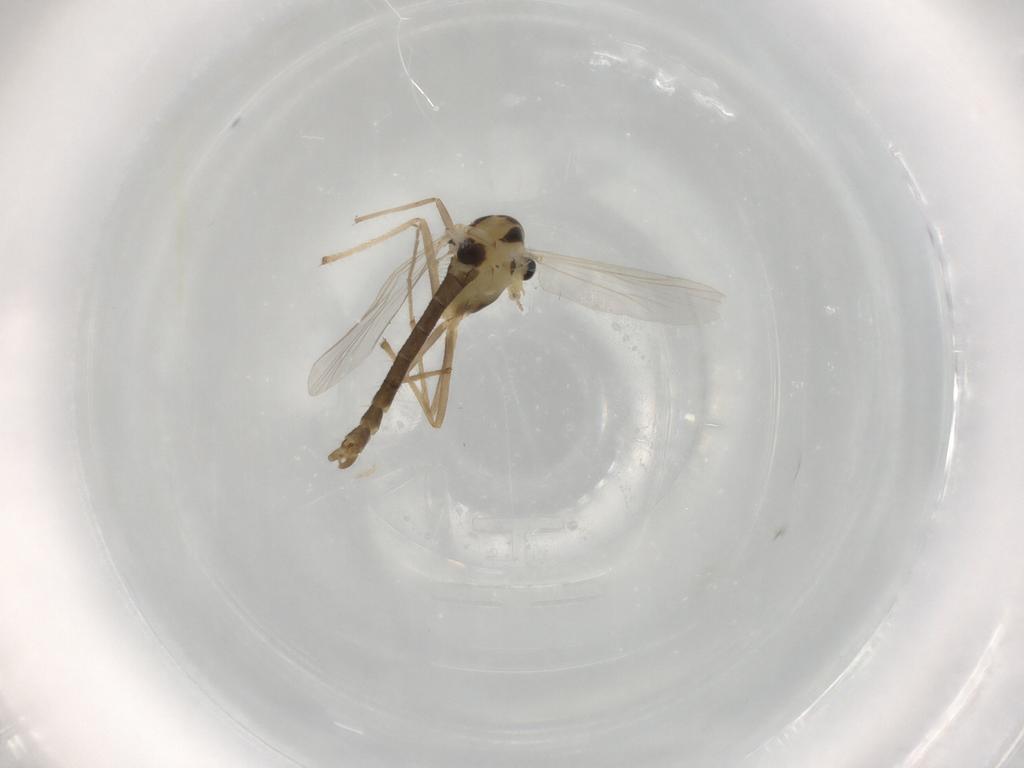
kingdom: Animalia
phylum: Arthropoda
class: Insecta
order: Diptera
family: Chironomidae
